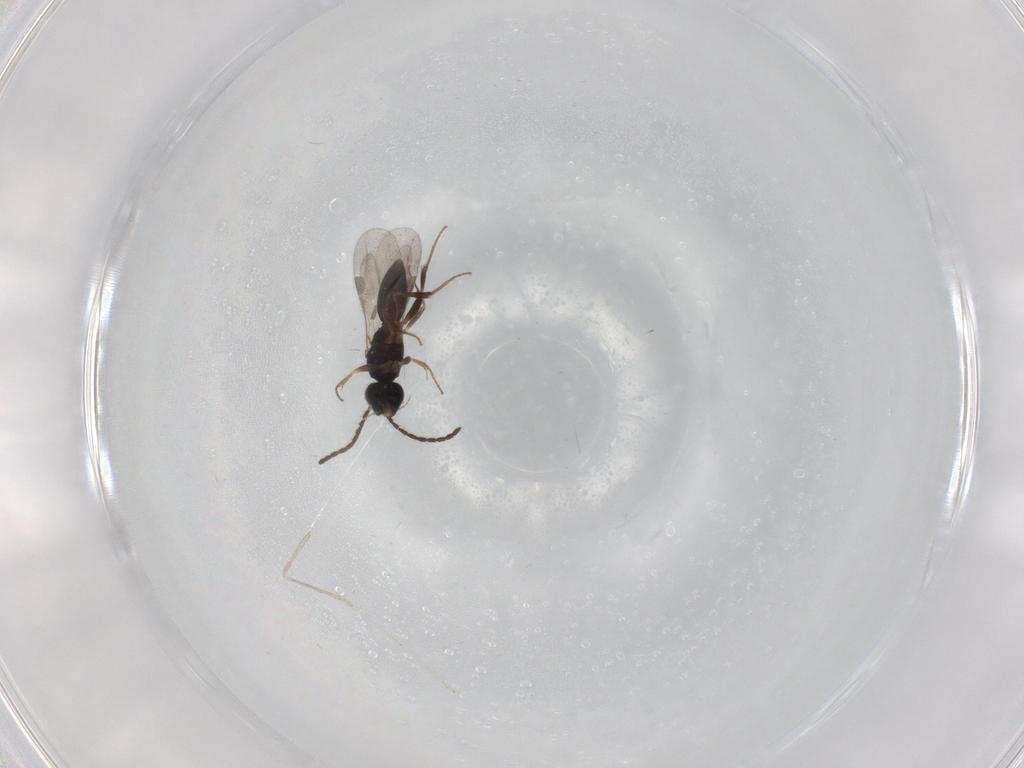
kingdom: Animalia
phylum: Arthropoda
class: Insecta
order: Hymenoptera
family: Megaspilidae
